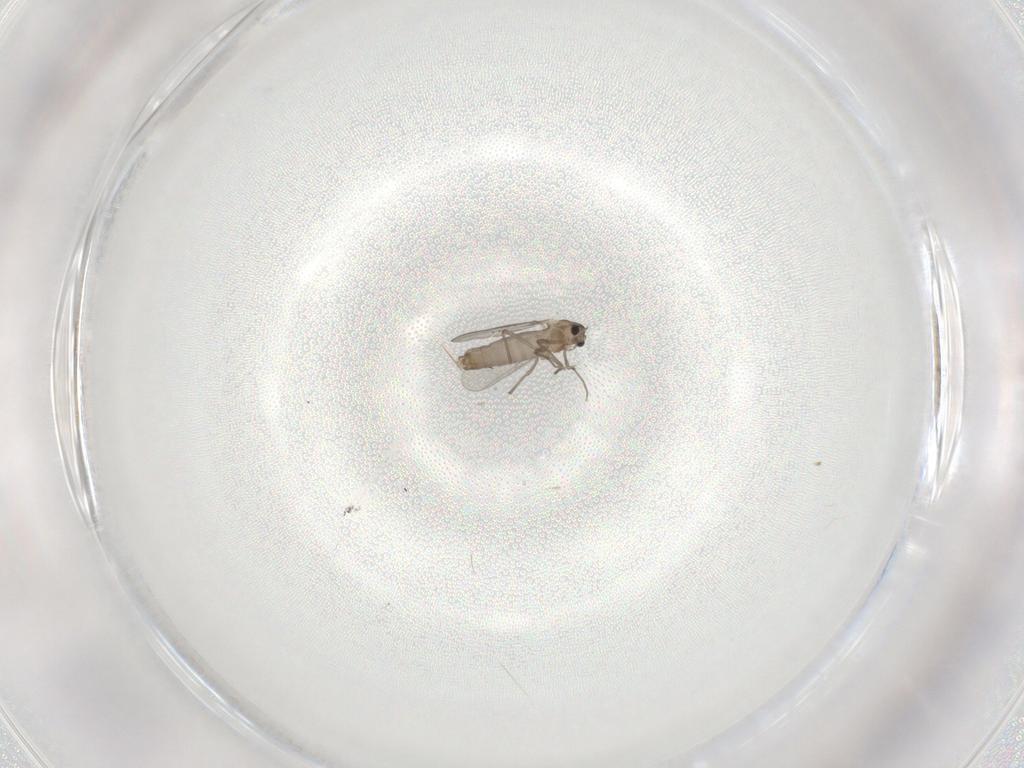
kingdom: Animalia
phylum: Arthropoda
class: Insecta
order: Diptera
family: Chironomidae
